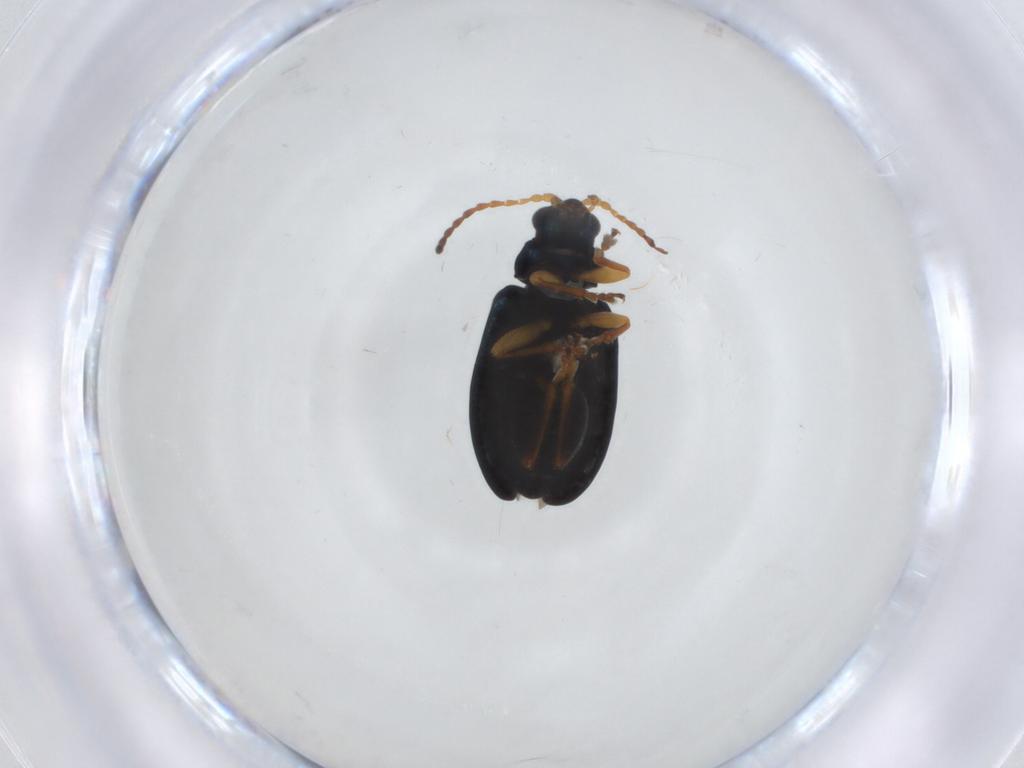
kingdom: Animalia
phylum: Arthropoda
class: Insecta
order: Coleoptera
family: Chrysomelidae
